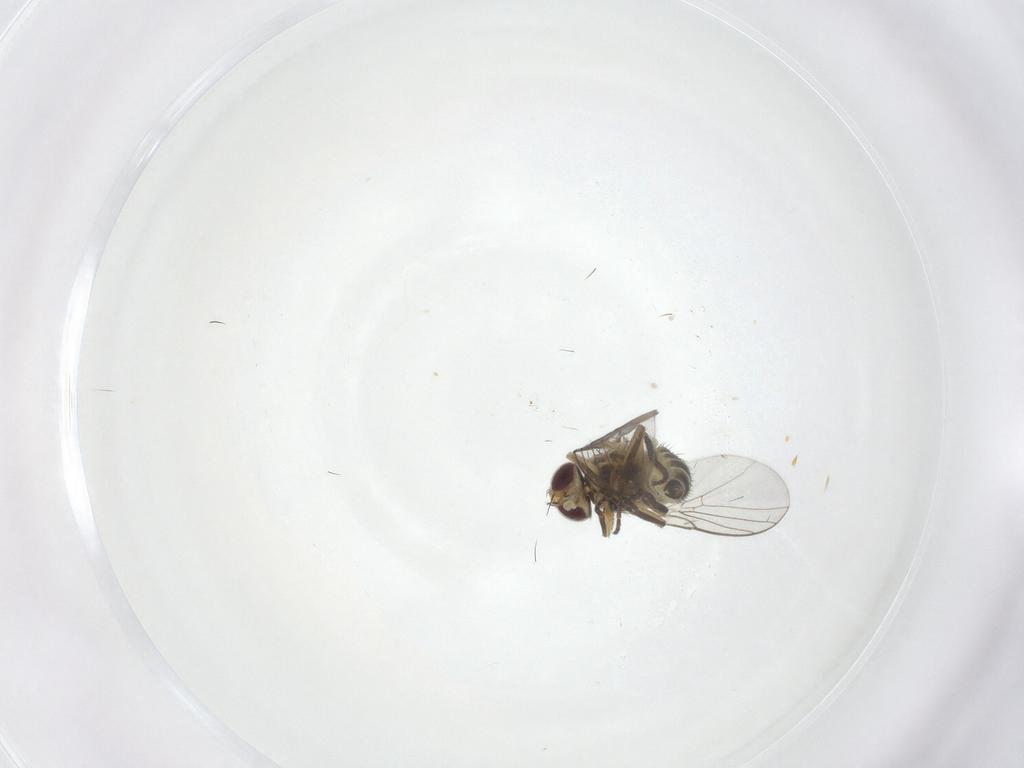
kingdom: Animalia
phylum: Arthropoda
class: Insecta
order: Diptera
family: Agromyzidae
